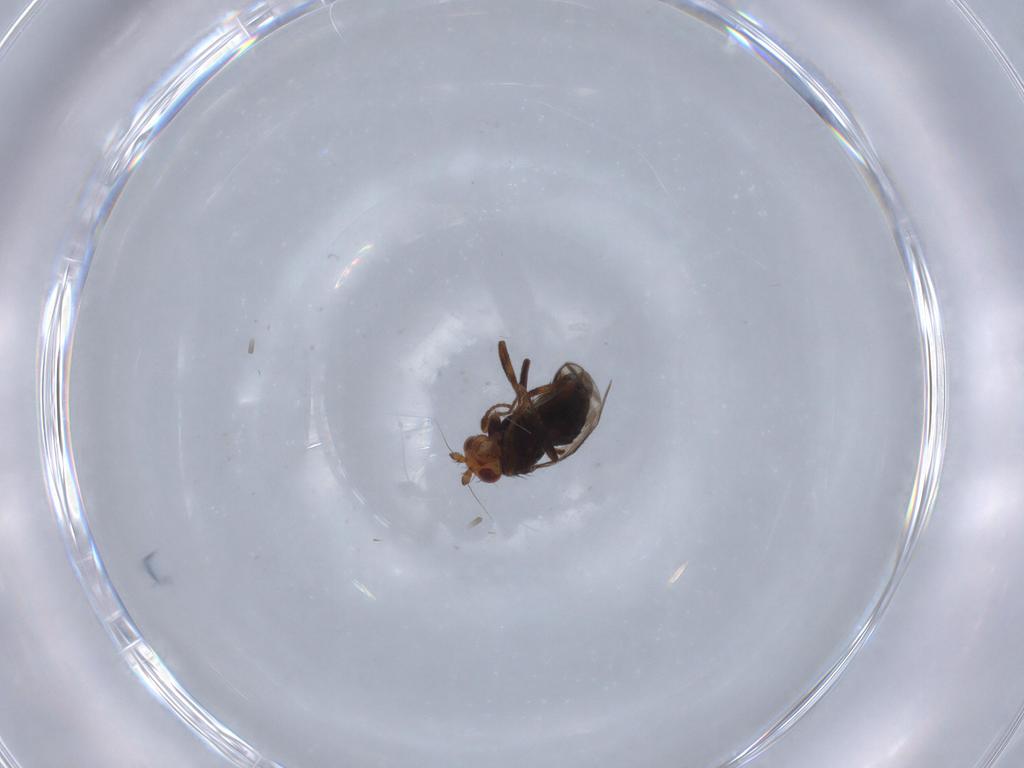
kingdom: Animalia
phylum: Arthropoda
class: Insecta
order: Diptera
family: Sphaeroceridae
